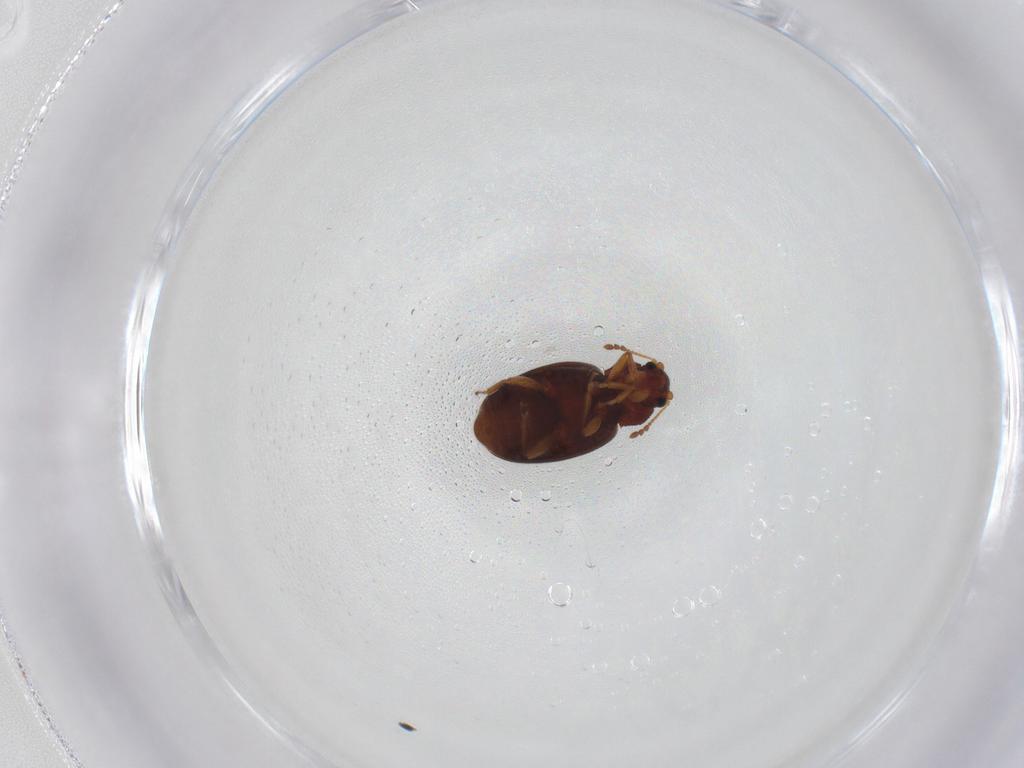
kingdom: Animalia
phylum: Arthropoda
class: Insecta
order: Coleoptera
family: Latridiidae
